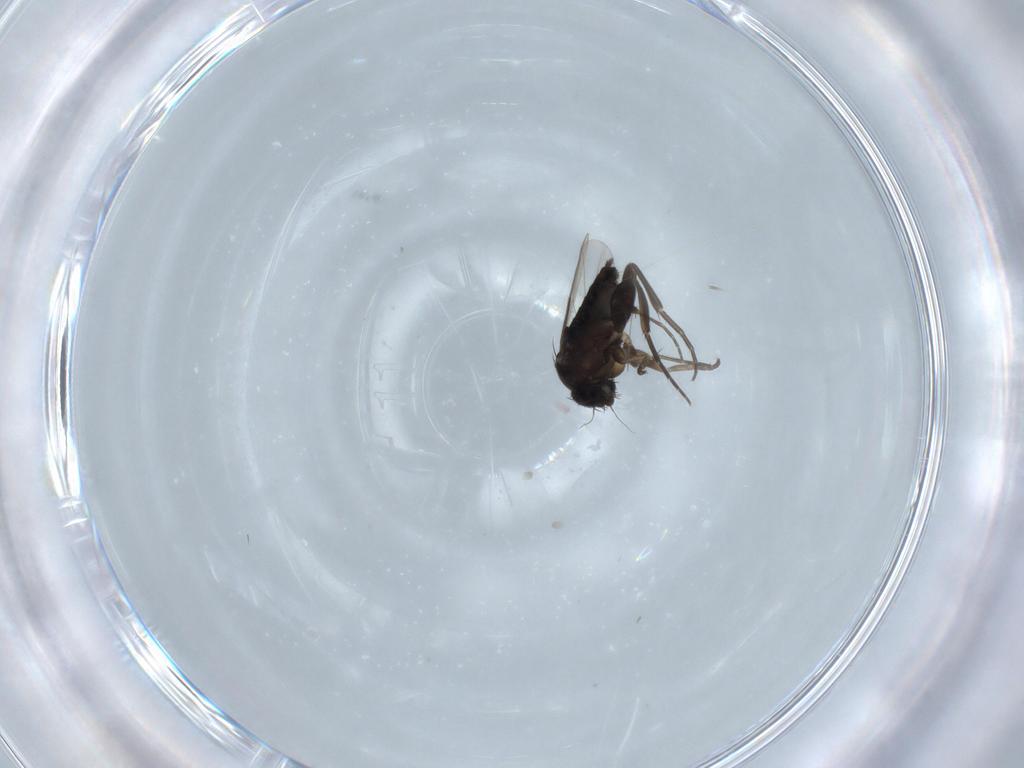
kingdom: Animalia
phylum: Arthropoda
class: Insecta
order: Diptera
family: Phoridae
